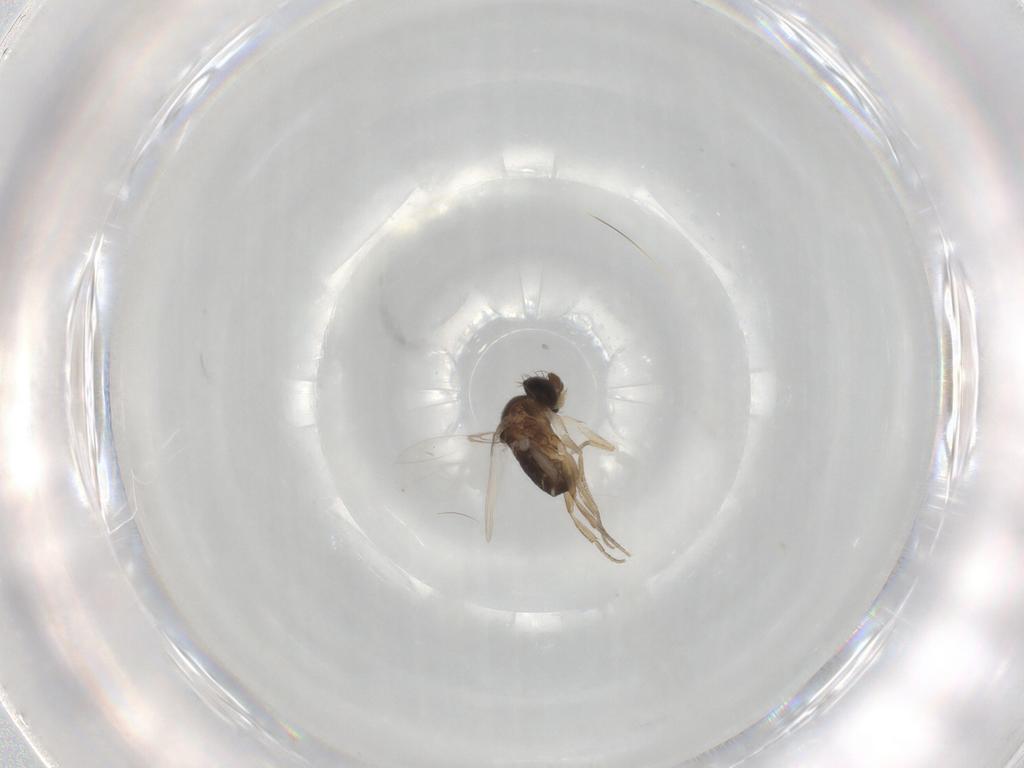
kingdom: Animalia
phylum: Arthropoda
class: Insecta
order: Diptera
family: Phoridae
